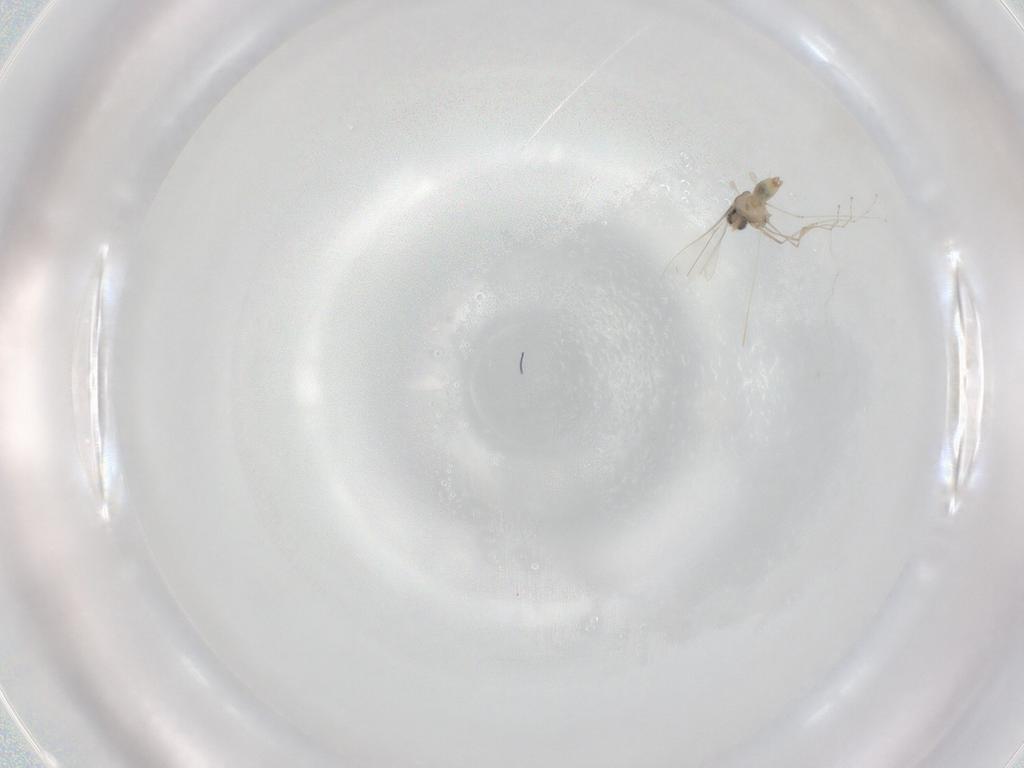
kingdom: Animalia
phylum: Arthropoda
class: Insecta
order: Diptera
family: Cecidomyiidae
